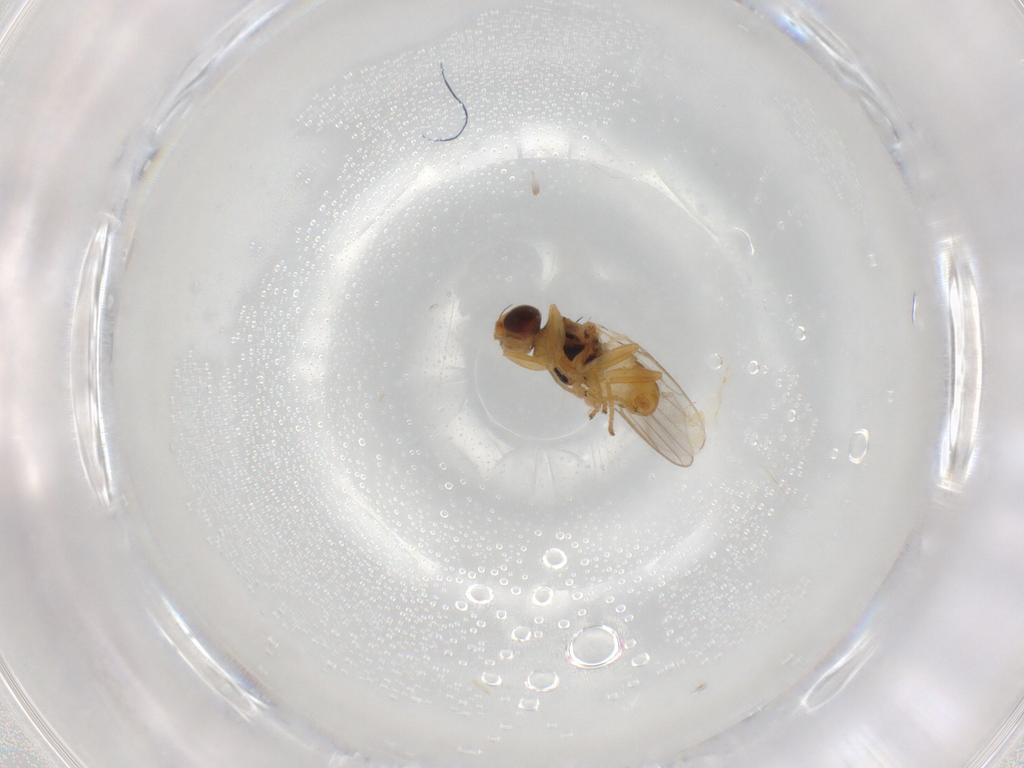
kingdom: Animalia
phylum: Arthropoda
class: Insecta
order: Diptera
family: Chloropidae
